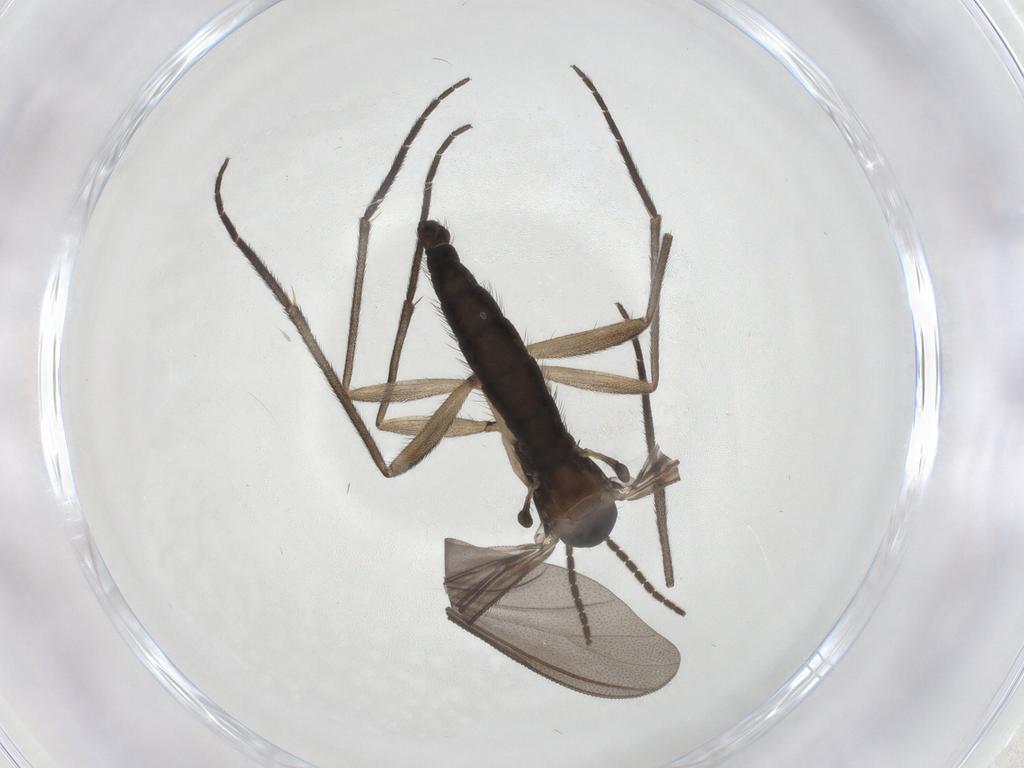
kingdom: Animalia
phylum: Arthropoda
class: Insecta
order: Diptera
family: Sciaridae
